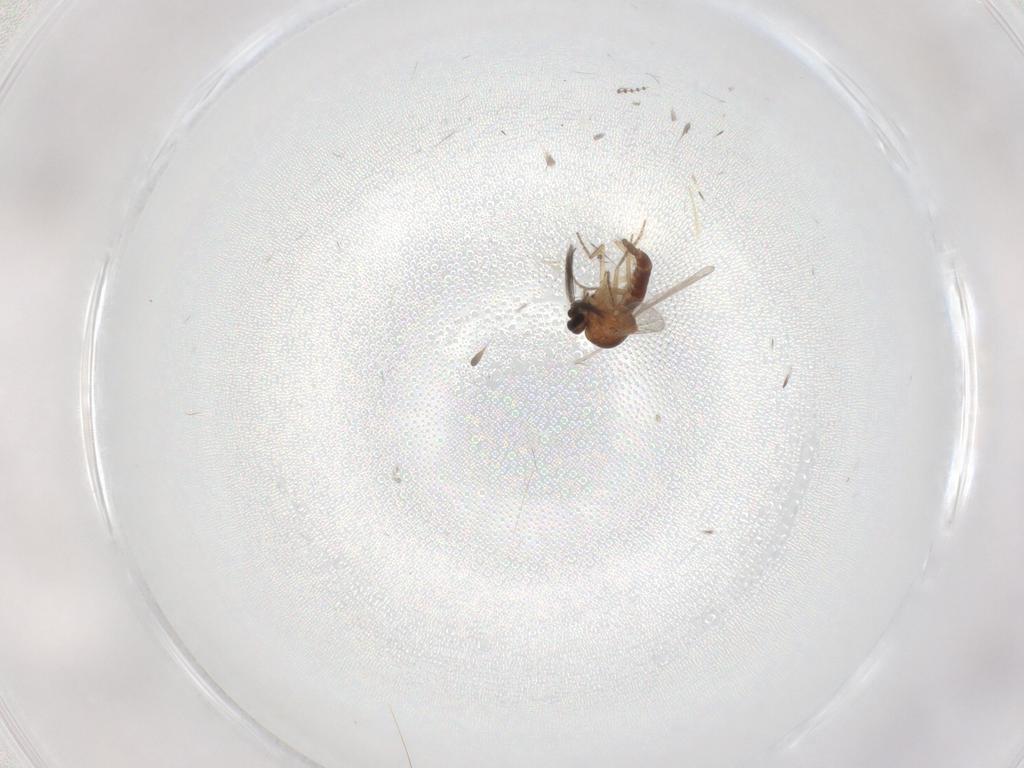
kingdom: Animalia
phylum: Arthropoda
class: Insecta
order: Diptera
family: Ceratopogonidae
